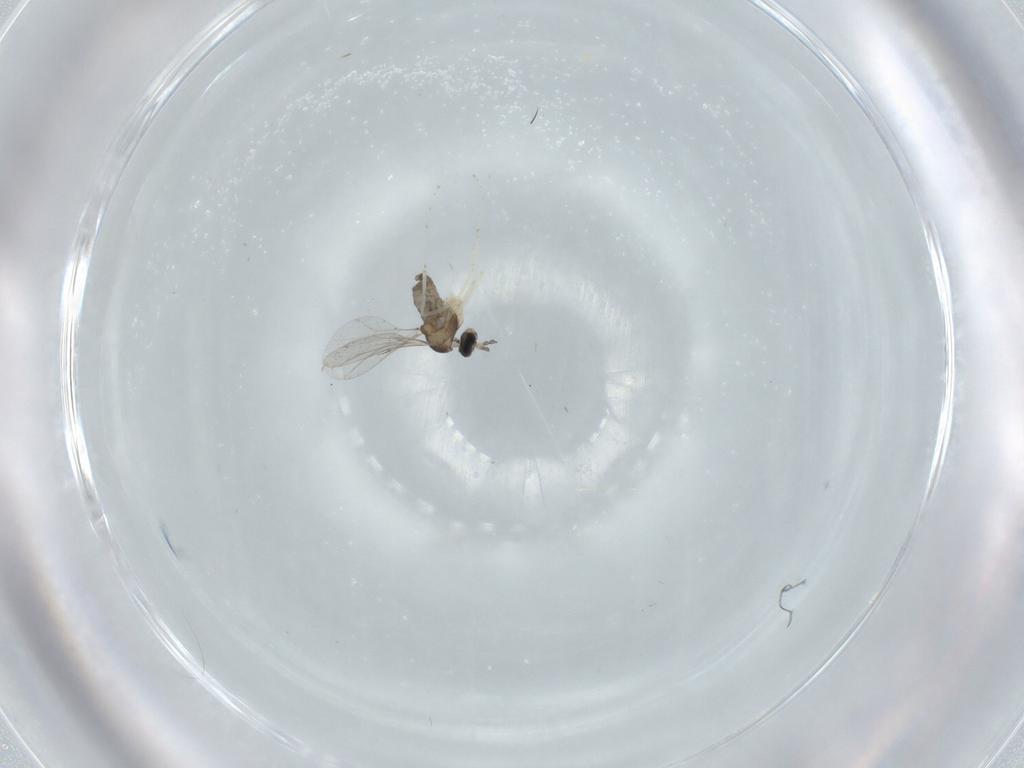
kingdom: Animalia
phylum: Arthropoda
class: Insecta
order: Diptera
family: Cecidomyiidae
